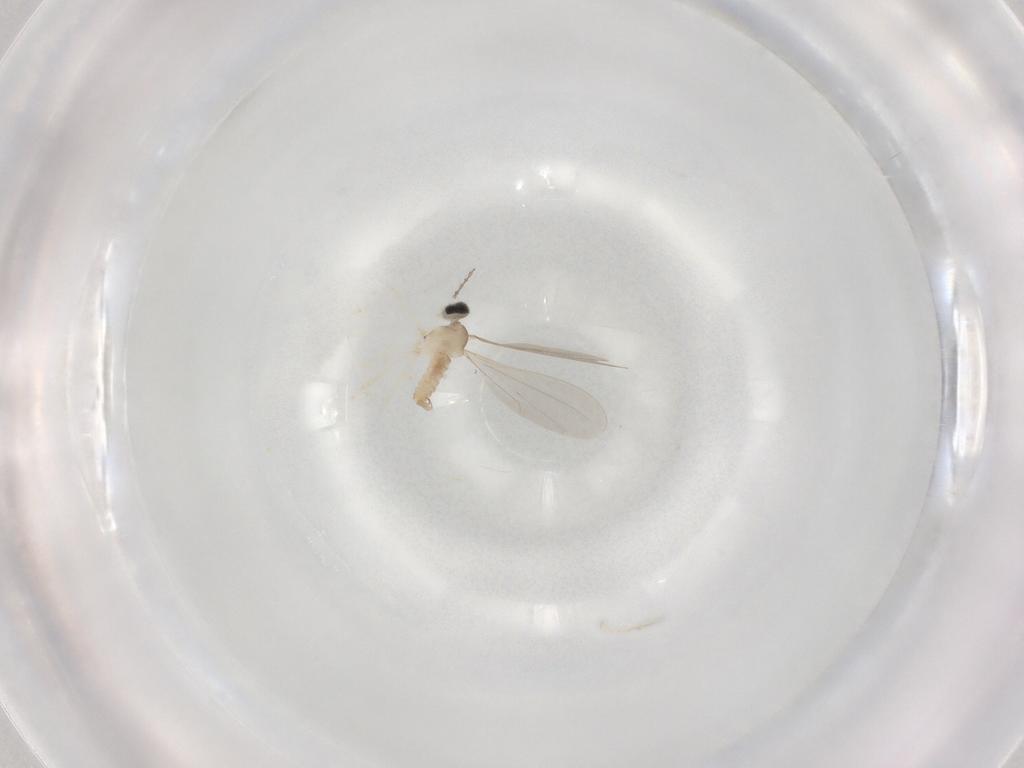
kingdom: Animalia
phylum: Arthropoda
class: Insecta
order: Diptera
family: Cecidomyiidae
